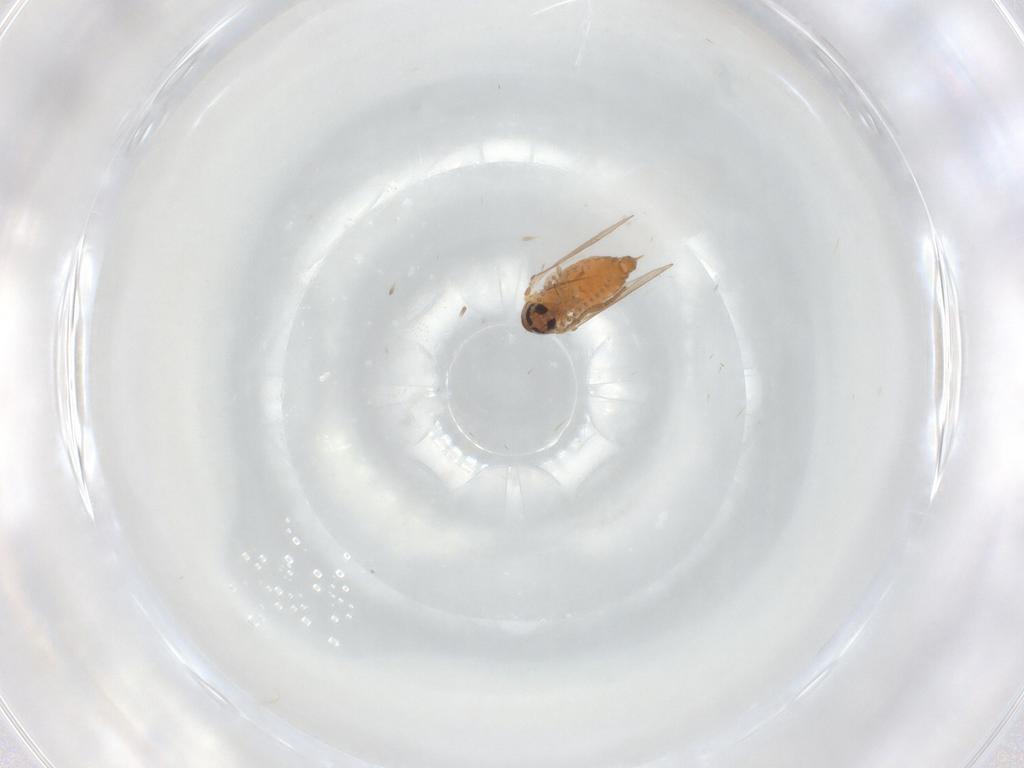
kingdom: Animalia
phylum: Arthropoda
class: Insecta
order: Diptera
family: Psychodidae
